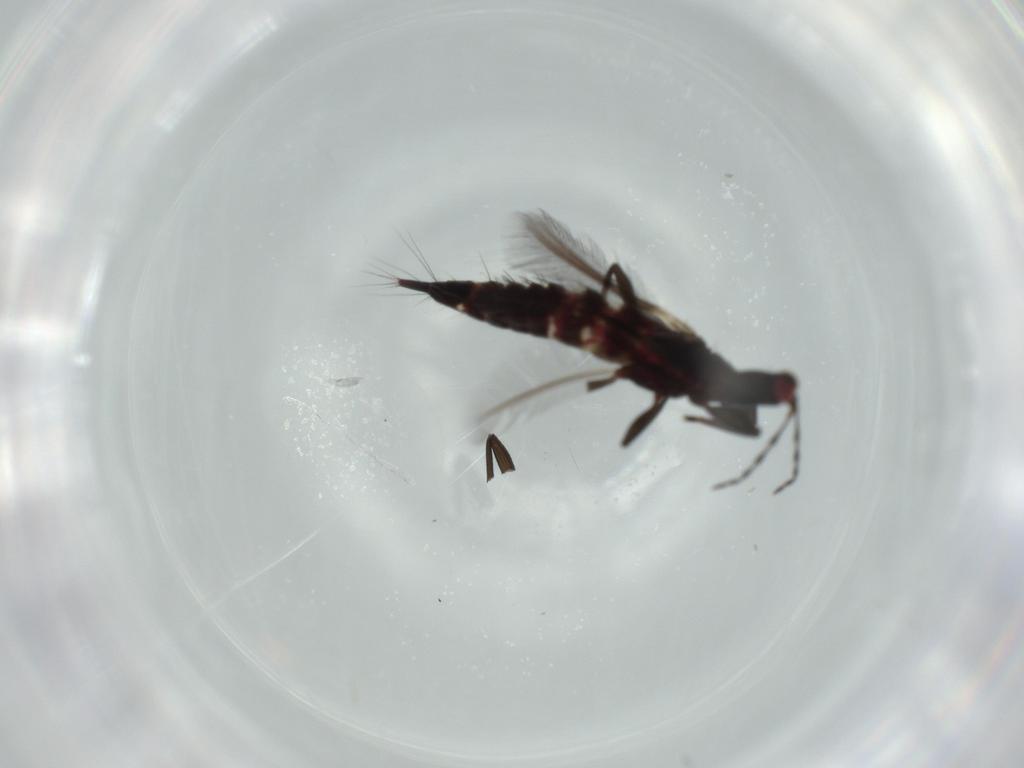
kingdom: Animalia
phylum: Arthropoda
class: Insecta
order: Thysanoptera
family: Phlaeothripidae
